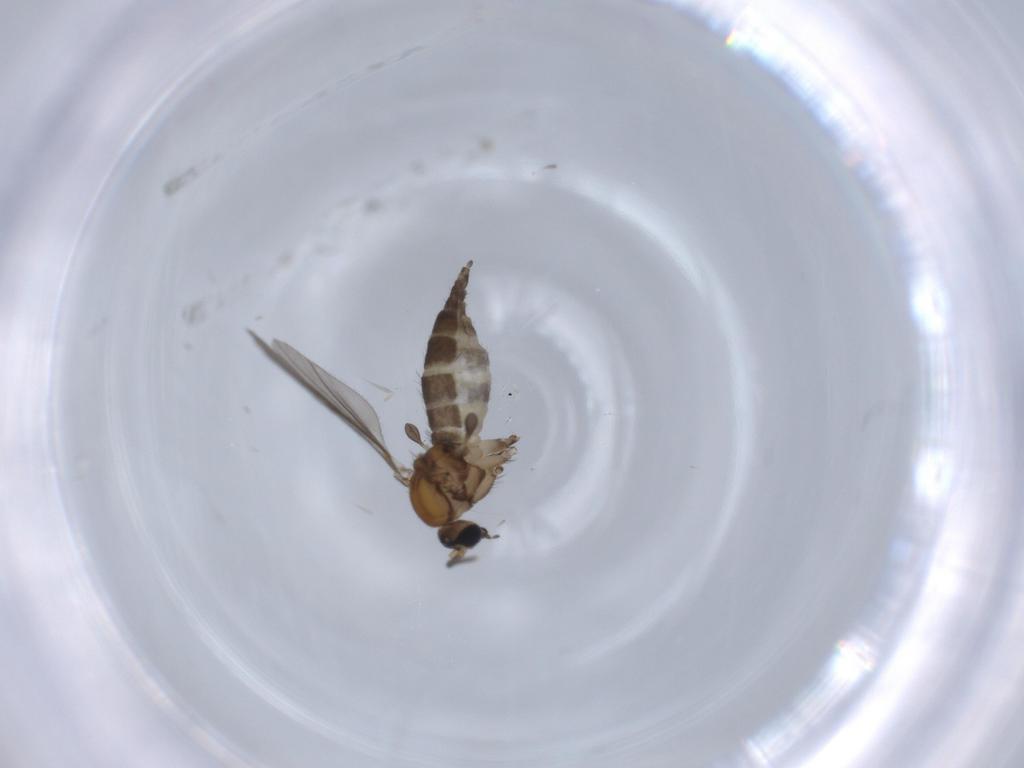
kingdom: Animalia
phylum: Arthropoda
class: Insecta
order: Diptera
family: Sciaridae
